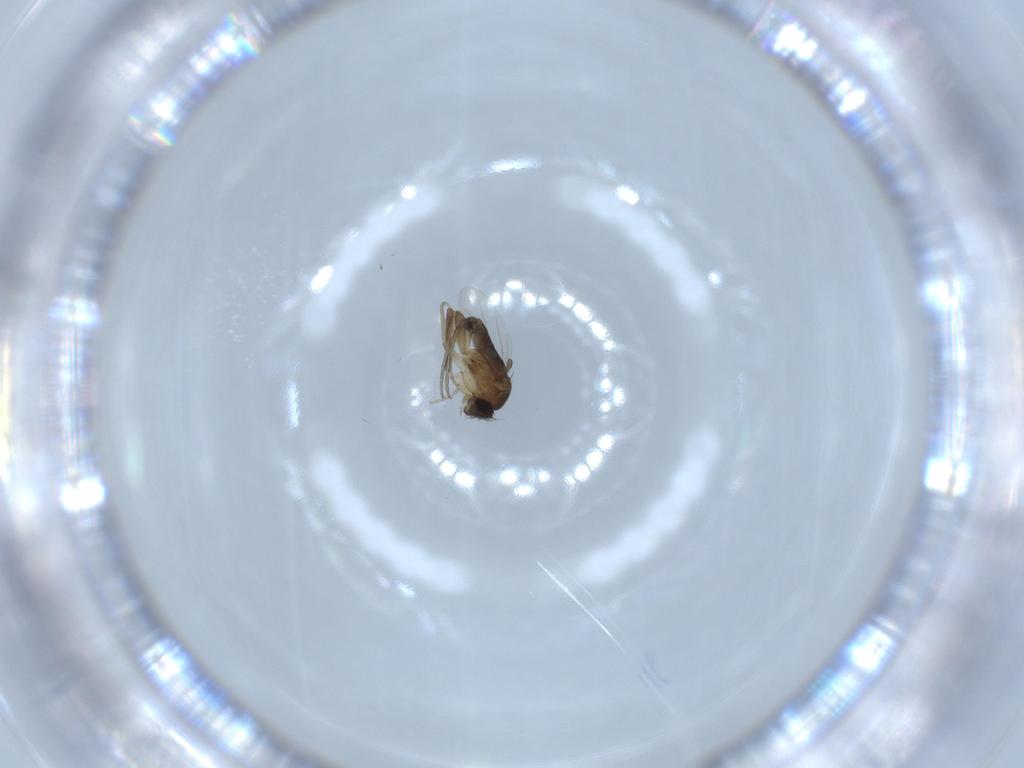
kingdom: Animalia
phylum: Arthropoda
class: Insecta
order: Diptera
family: Phoridae
